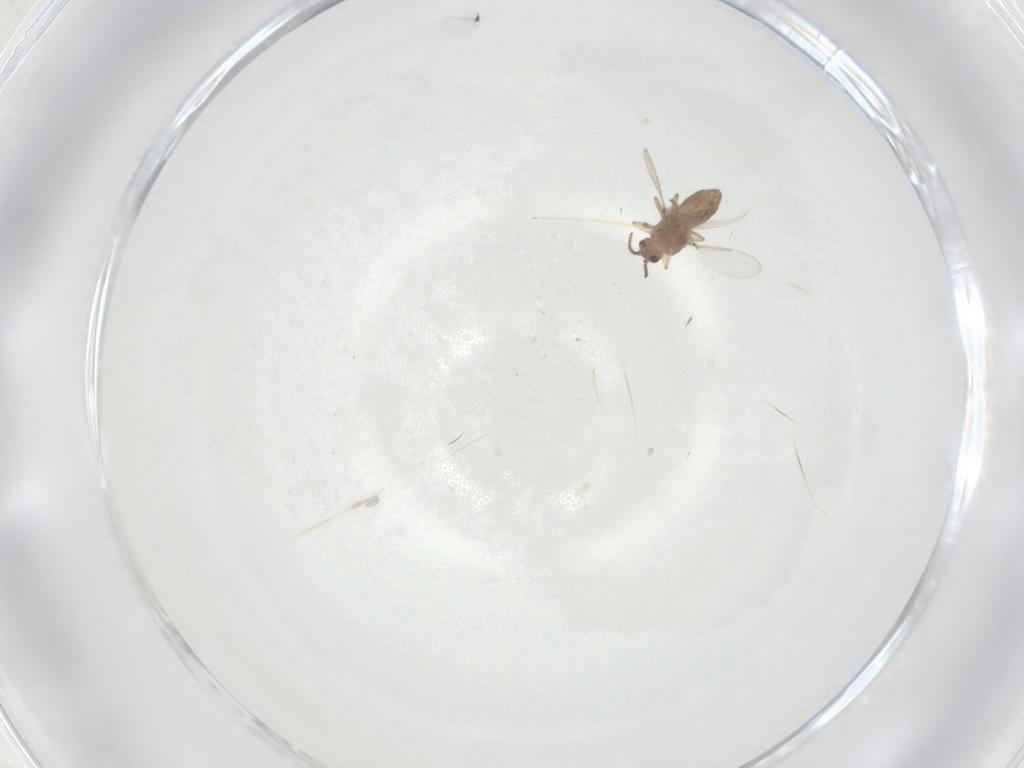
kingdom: Animalia
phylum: Arthropoda
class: Insecta
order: Diptera
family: Ceratopogonidae
